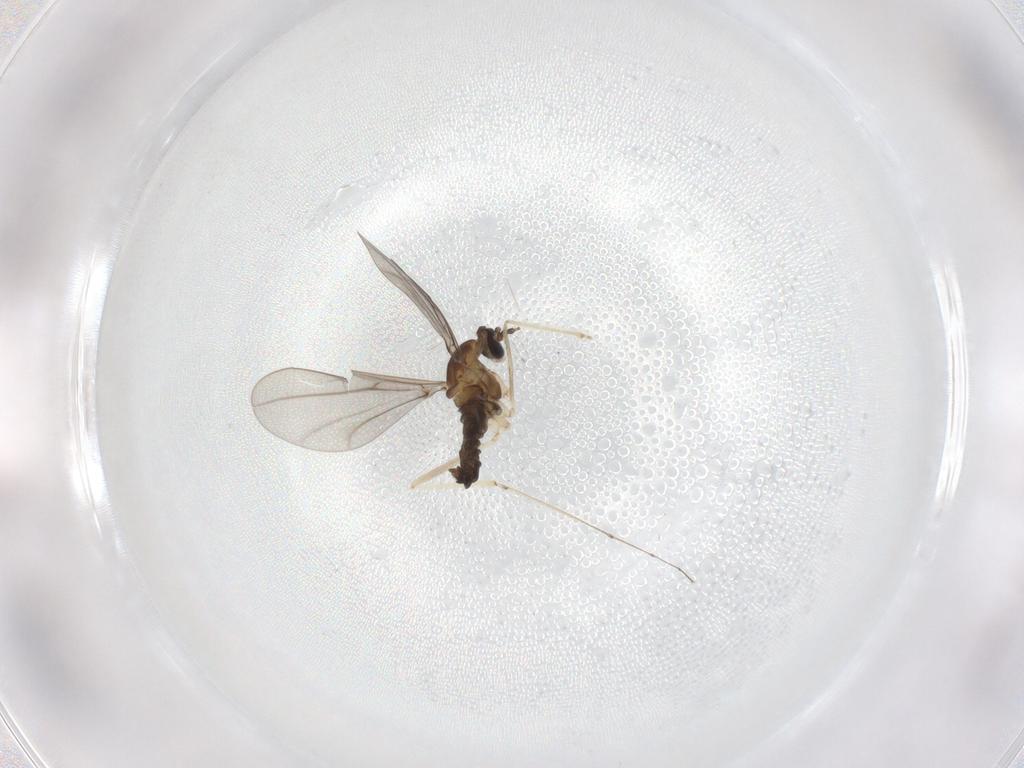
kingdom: Animalia
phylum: Arthropoda
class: Insecta
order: Diptera
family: Cecidomyiidae
